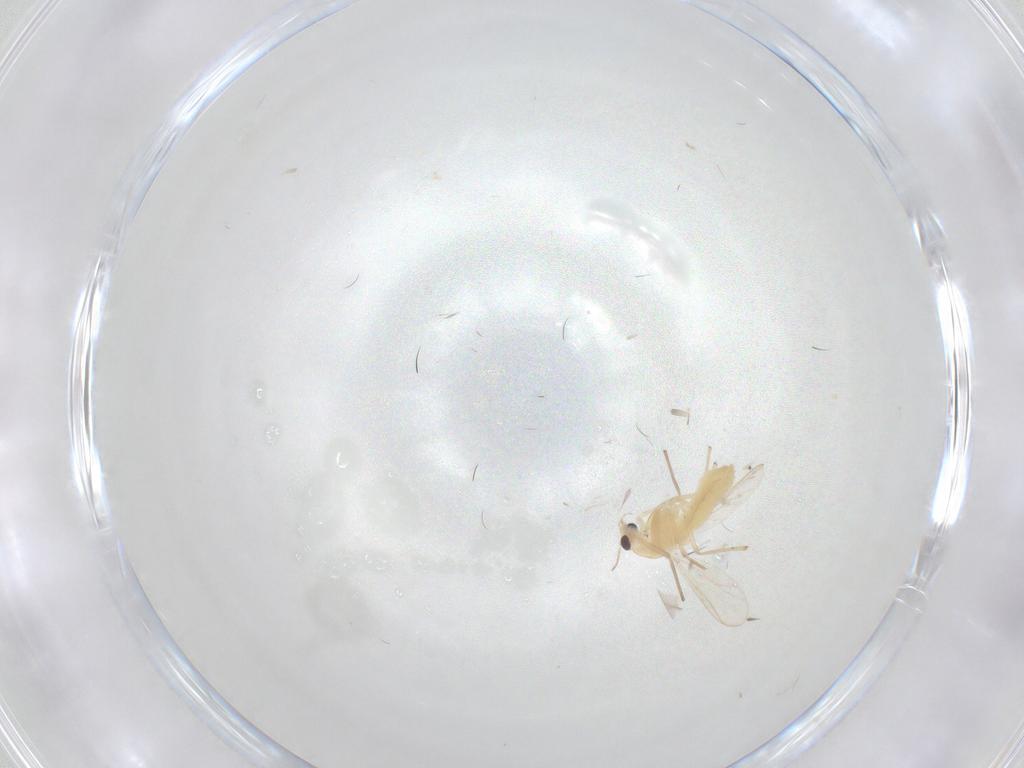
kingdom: Animalia
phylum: Arthropoda
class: Insecta
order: Diptera
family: Chironomidae
